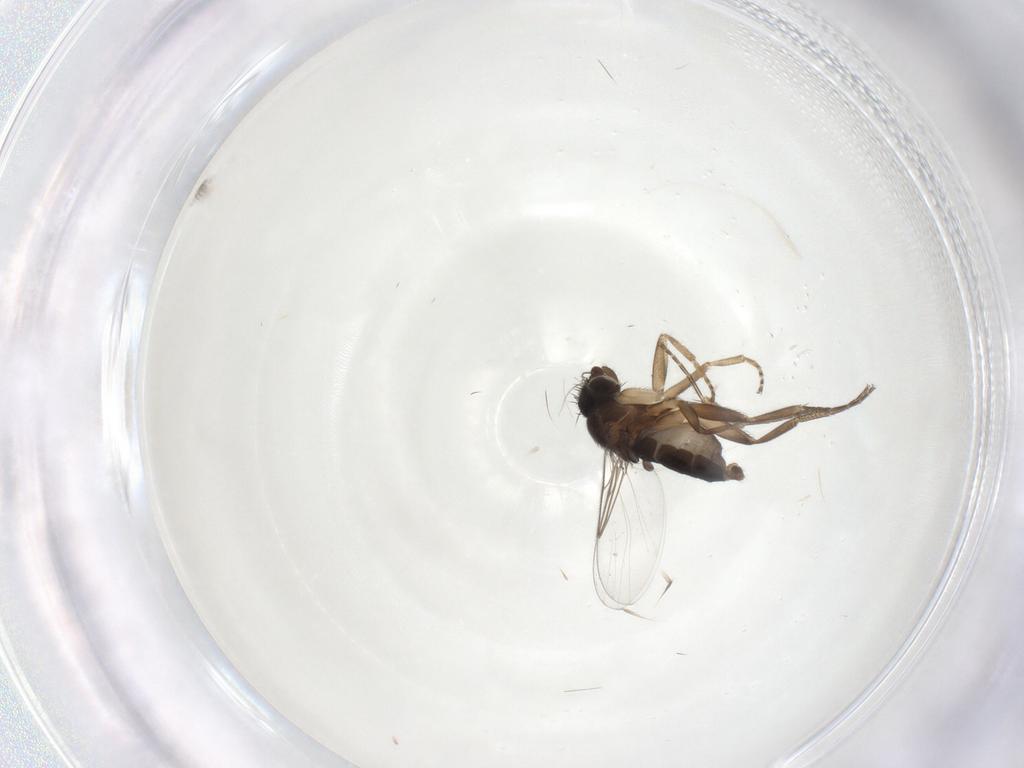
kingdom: Animalia
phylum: Arthropoda
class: Insecta
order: Diptera
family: Phoridae
